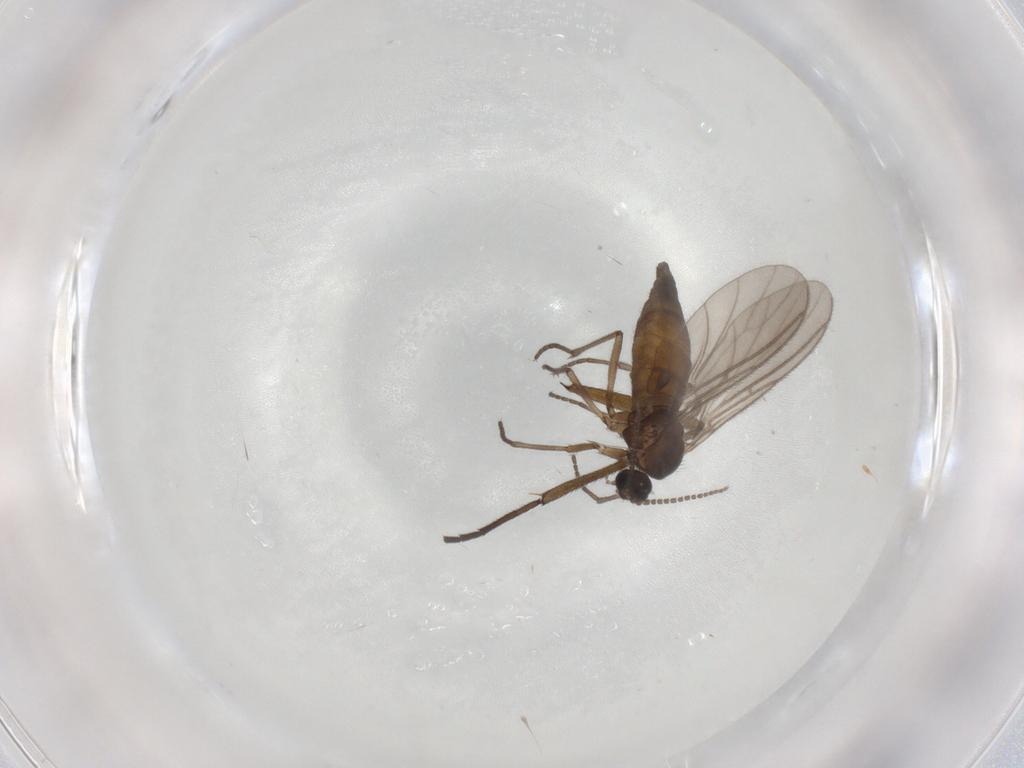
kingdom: Animalia
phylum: Arthropoda
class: Insecta
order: Diptera
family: Sciaridae
